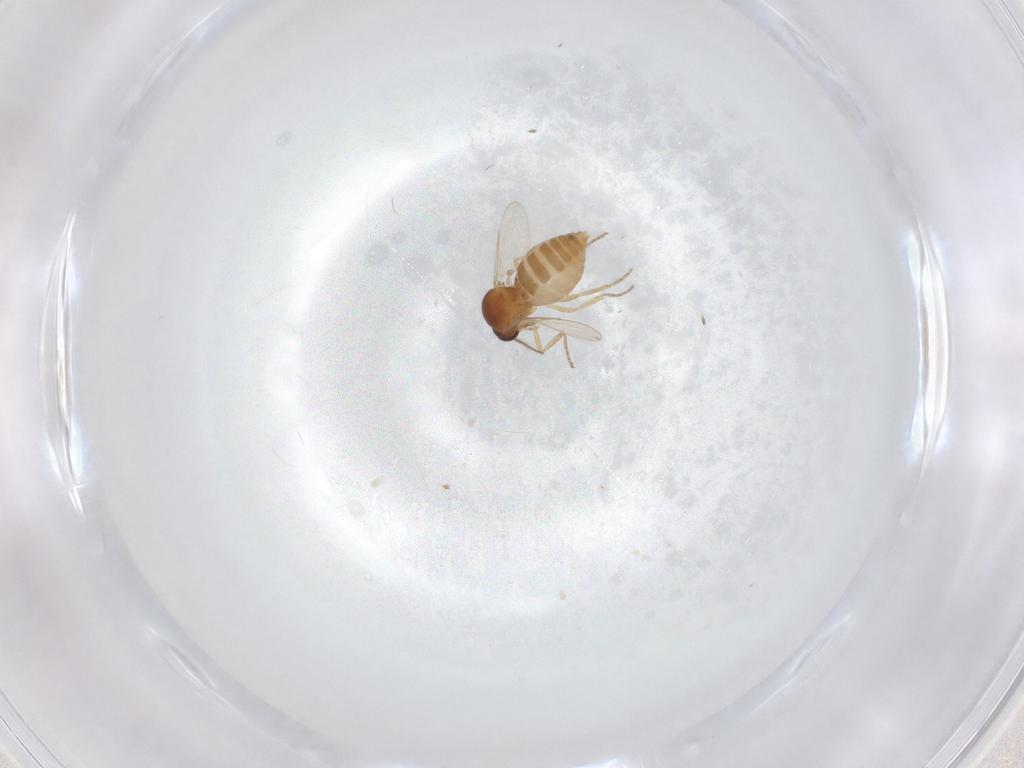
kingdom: Animalia
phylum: Arthropoda
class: Insecta
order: Diptera
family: Ceratopogonidae
